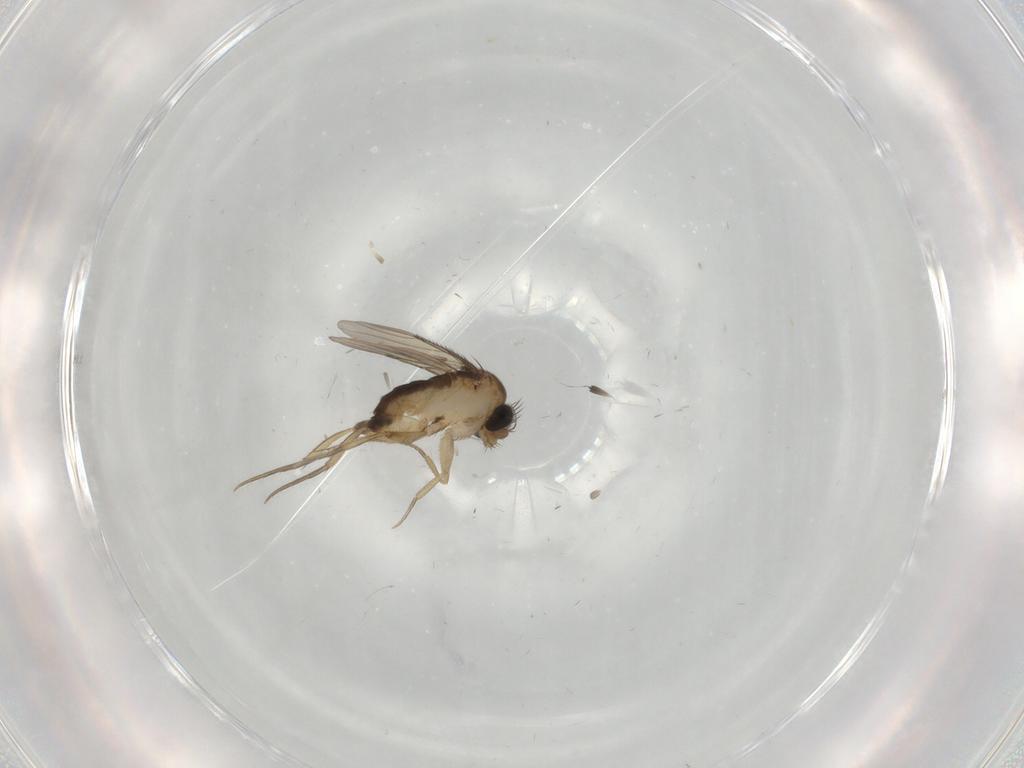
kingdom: Animalia
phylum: Arthropoda
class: Insecta
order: Diptera
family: Phoridae
